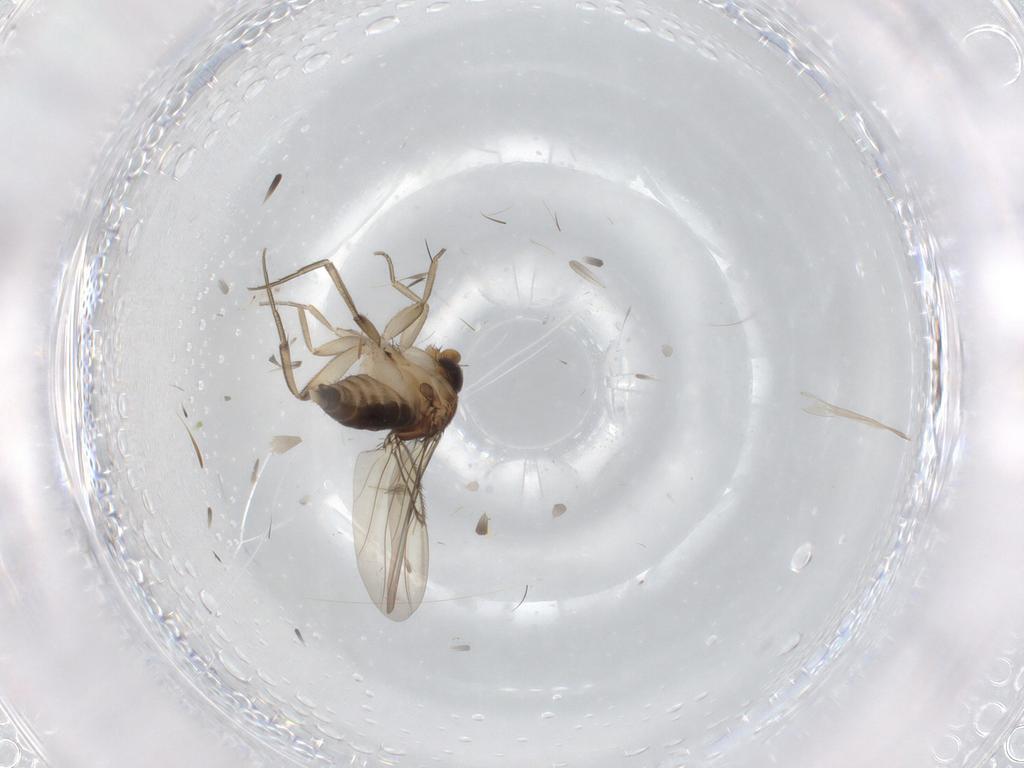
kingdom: Animalia
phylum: Arthropoda
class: Insecta
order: Diptera
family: Phoridae
